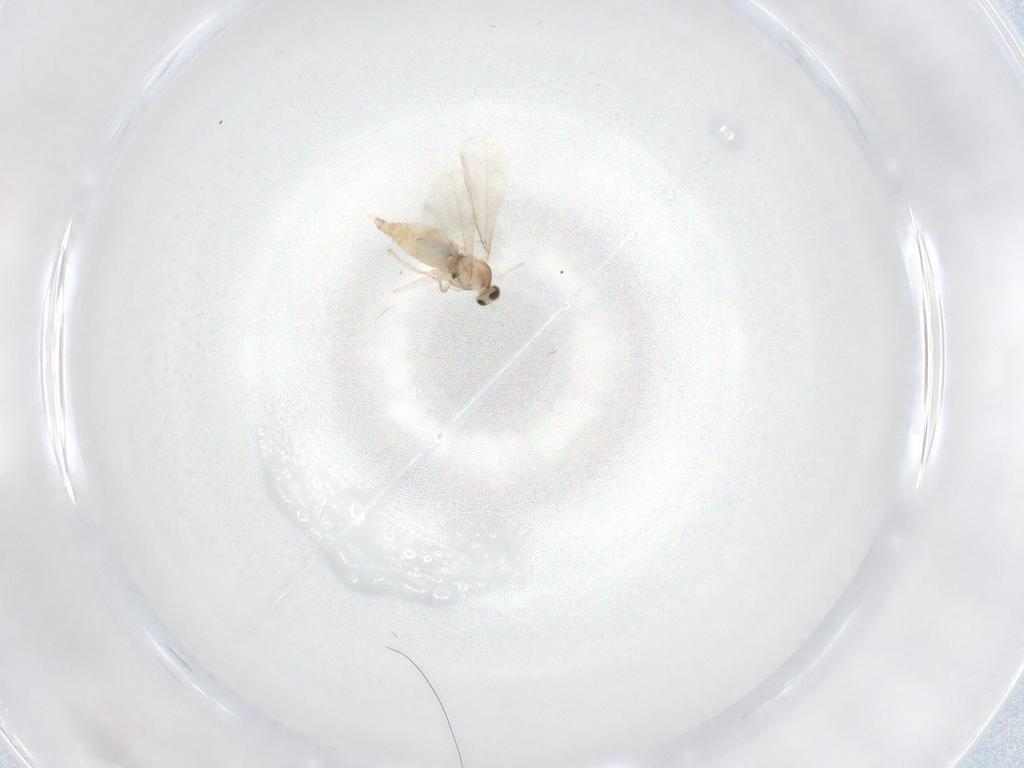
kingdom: Animalia
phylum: Arthropoda
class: Insecta
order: Diptera
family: Cecidomyiidae
